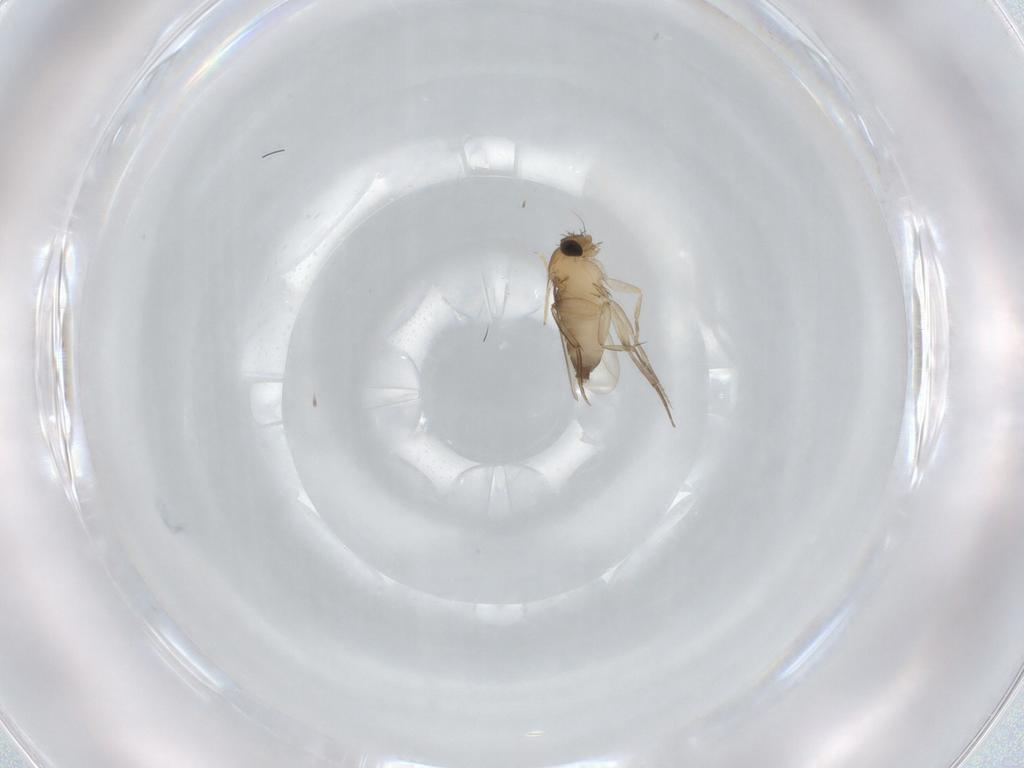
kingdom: Animalia
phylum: Arthropoda
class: Insecta
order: Diptera
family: Phoridae
